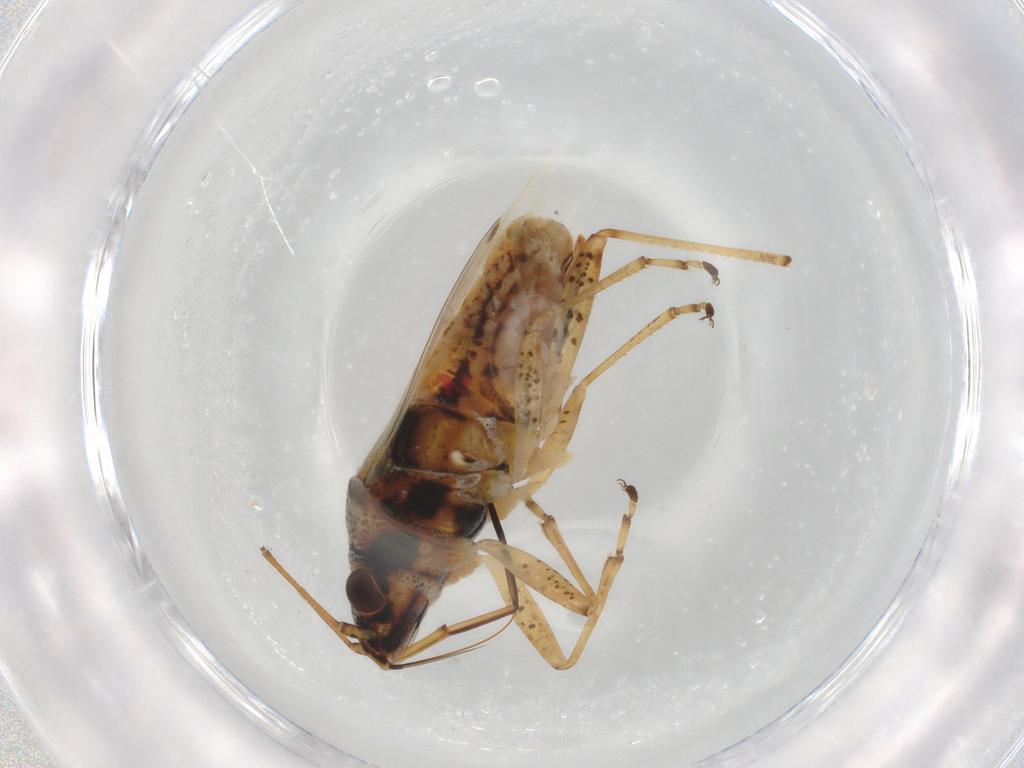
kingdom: Animalia
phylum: Arthropoda
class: Insecta
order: Hemiptera
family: Lygaeidae
